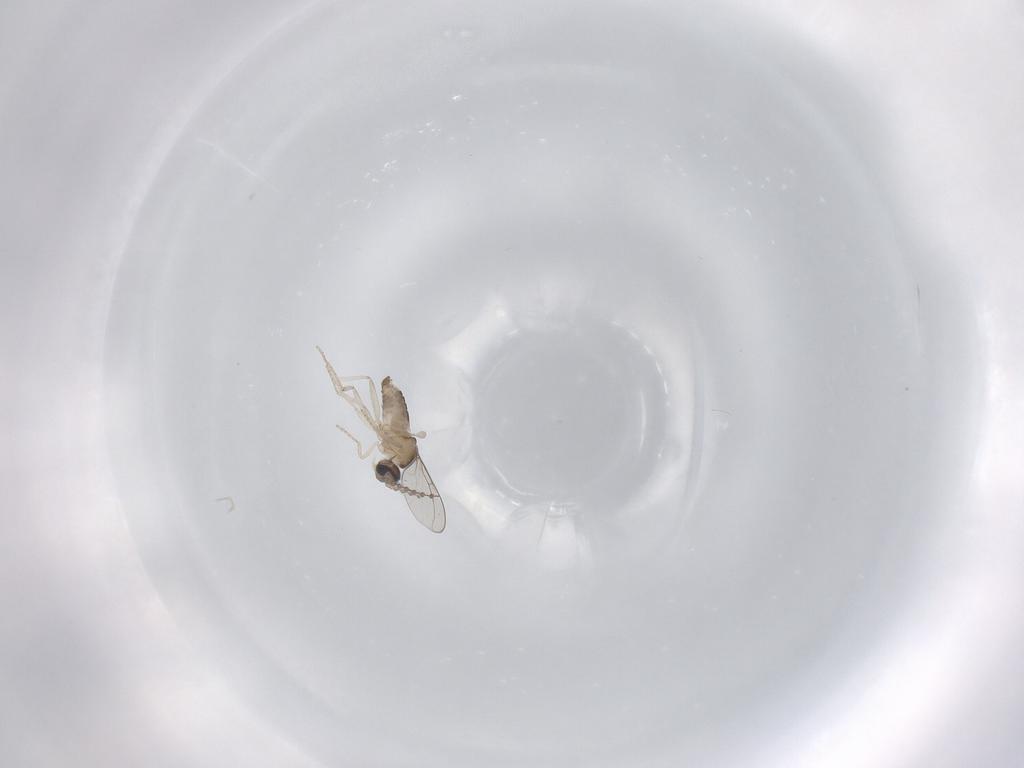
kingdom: Animalia
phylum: Arthropoda
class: Insecta
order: Diptera
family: Cecidomyiidae
